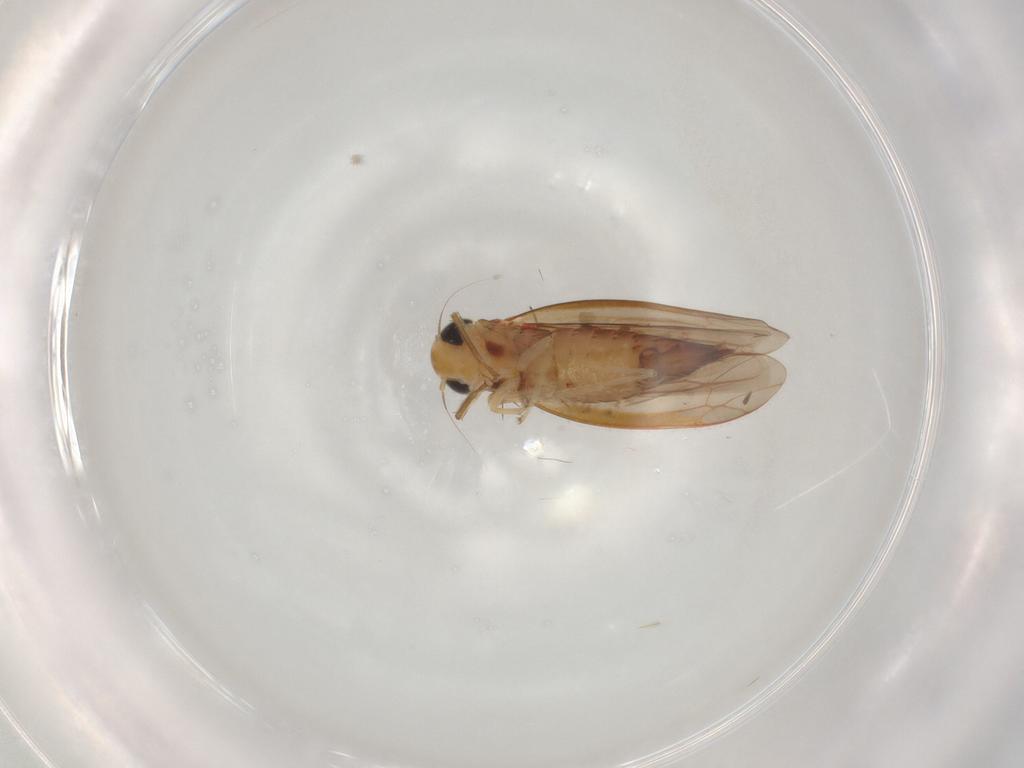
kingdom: Animalia
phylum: Arthropoda
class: Insecta
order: Hemiptera
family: Cicadellidae
